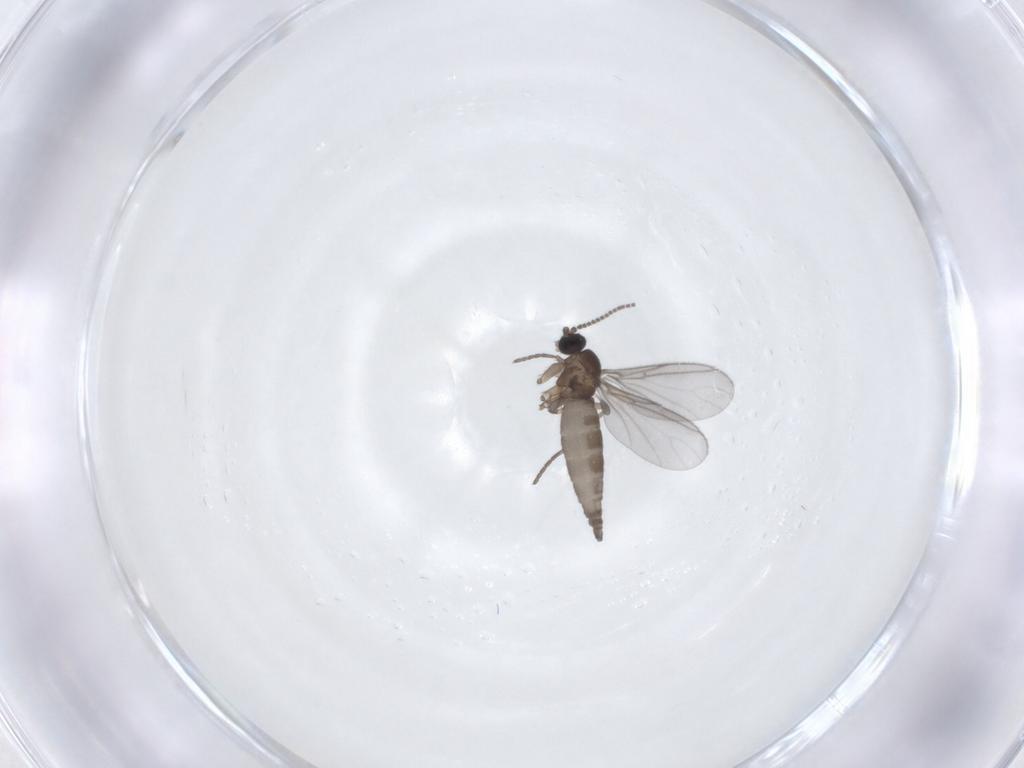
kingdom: Animalia
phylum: Arthropoda
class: Insecta
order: Diptera
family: Sciaridae
